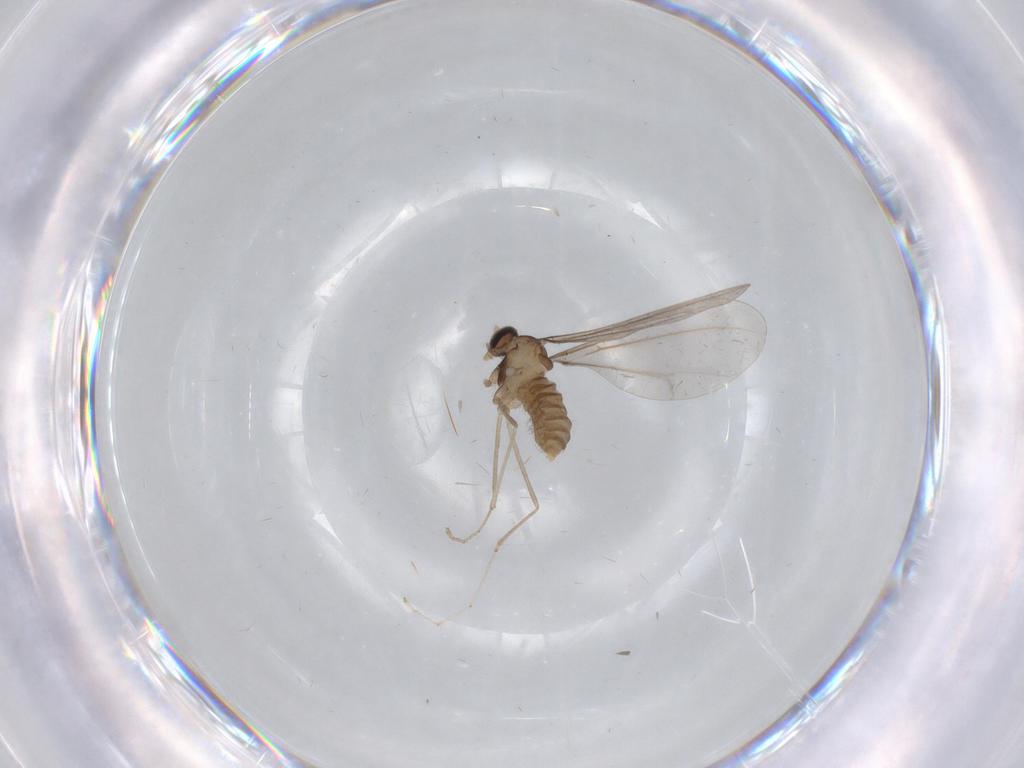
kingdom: Animalia
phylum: Arthropoda
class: Insecta
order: Diptera
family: Cecidomyiidae
